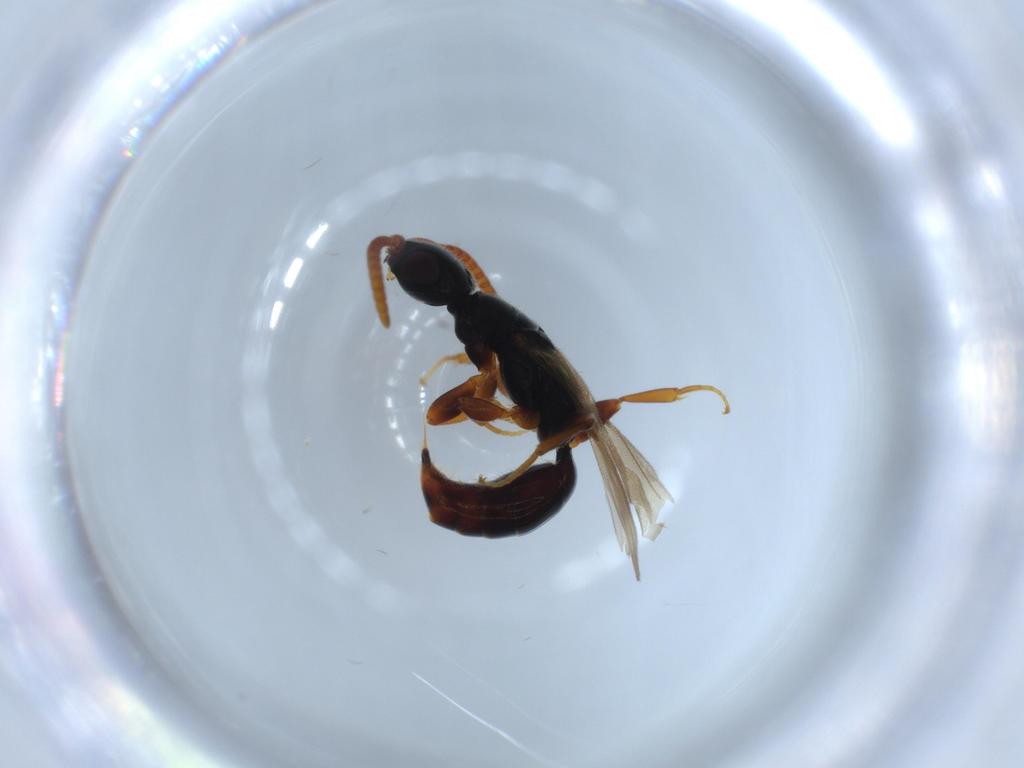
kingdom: Animalia
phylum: Arthropoda
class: Insecta
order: Hymenoptera
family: Bethylidae
